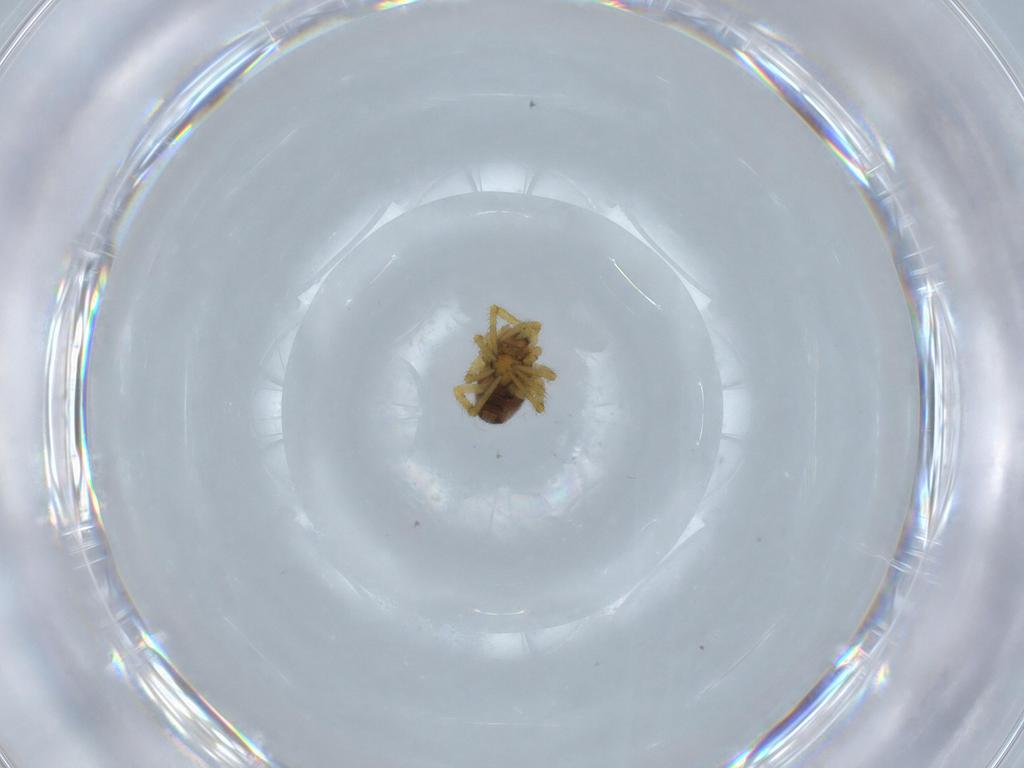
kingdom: Animalia
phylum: Arthropoda
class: Arachnida
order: Araneae
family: Theridiidae
